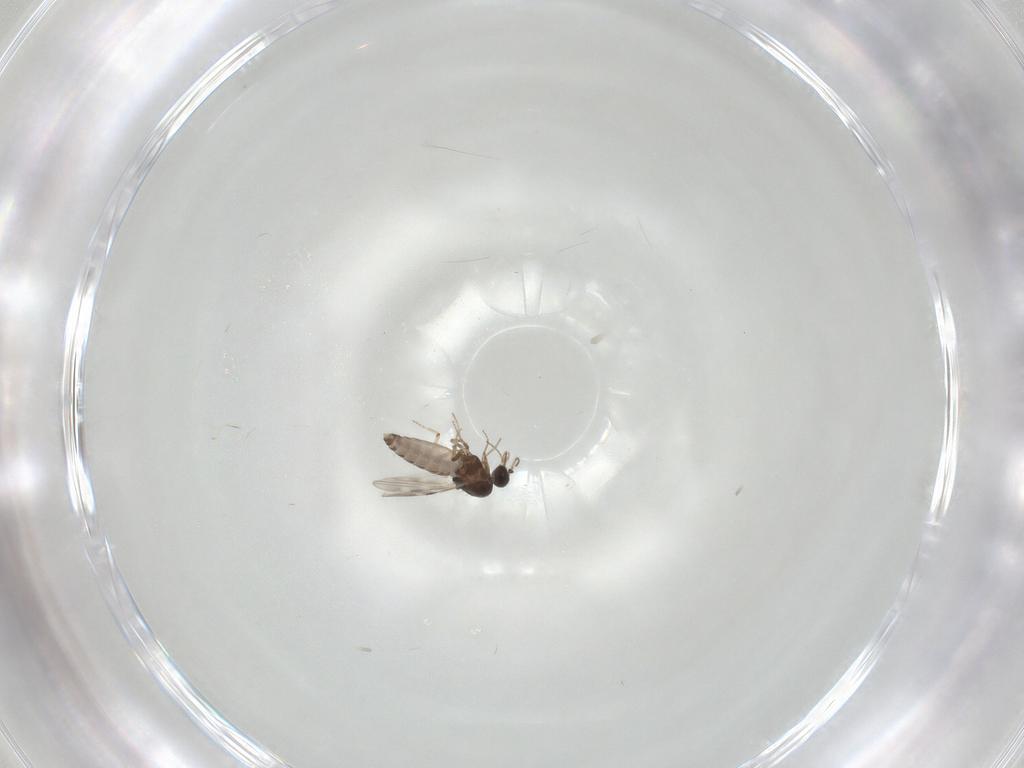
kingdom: Animalia
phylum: Arthropoda
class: Insecta
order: Diptera
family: Sphaeroceridae
